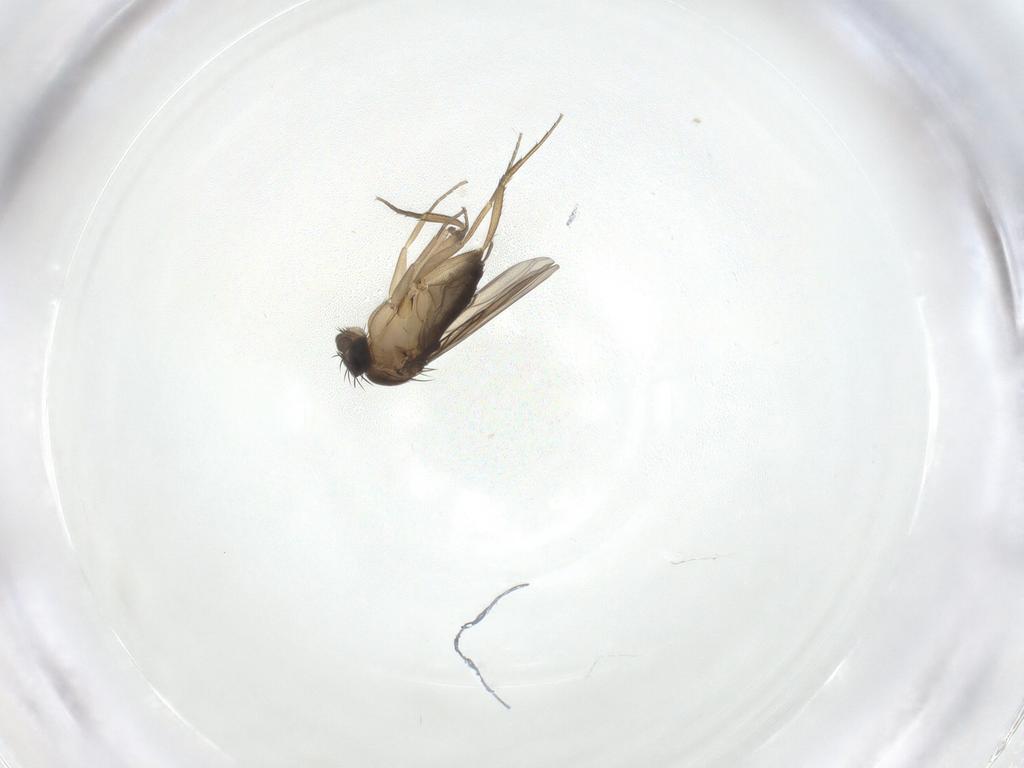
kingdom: Animalia
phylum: Arthropoda
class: Insecta
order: Diptera
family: Phoridae
